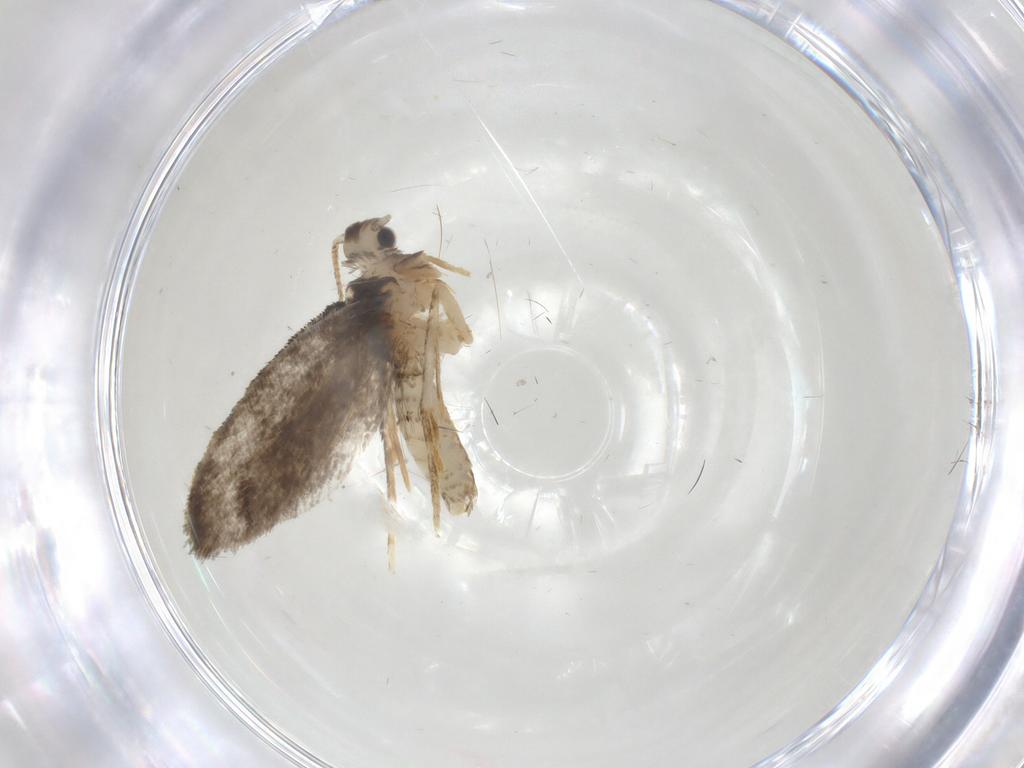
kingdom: Animalia
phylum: Arthropoda
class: Insecta
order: Lepidoptera
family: Psychidae
